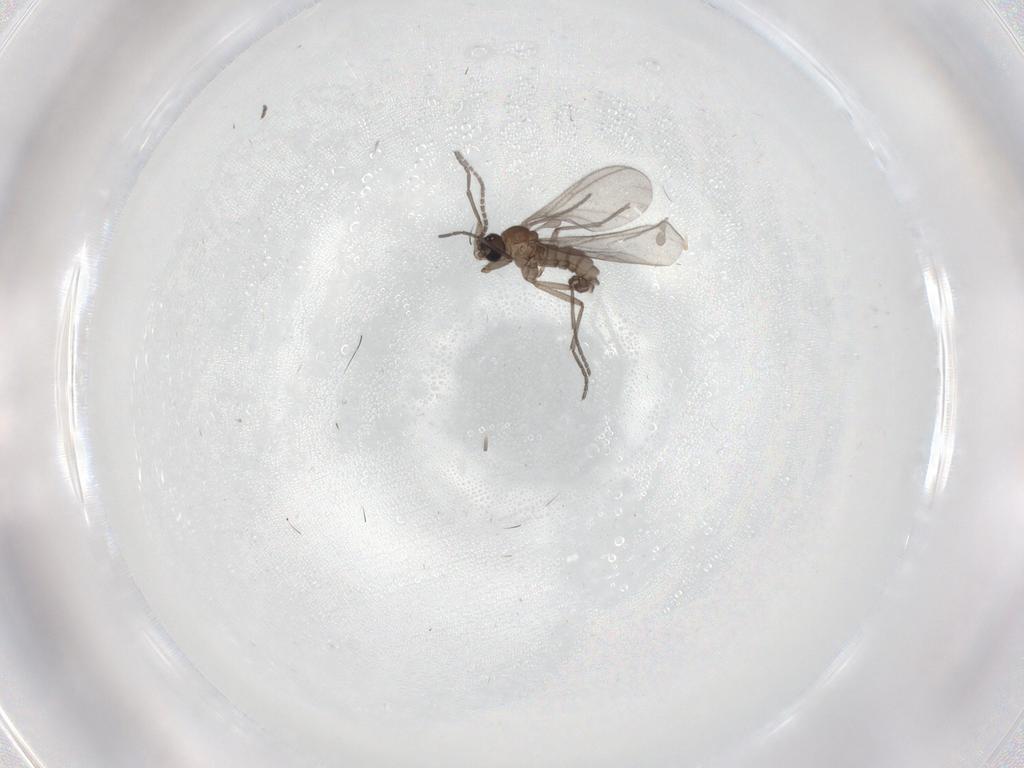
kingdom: Animalia
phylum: Arthropoda
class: Insecta
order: Diptera
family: Sciaridae
